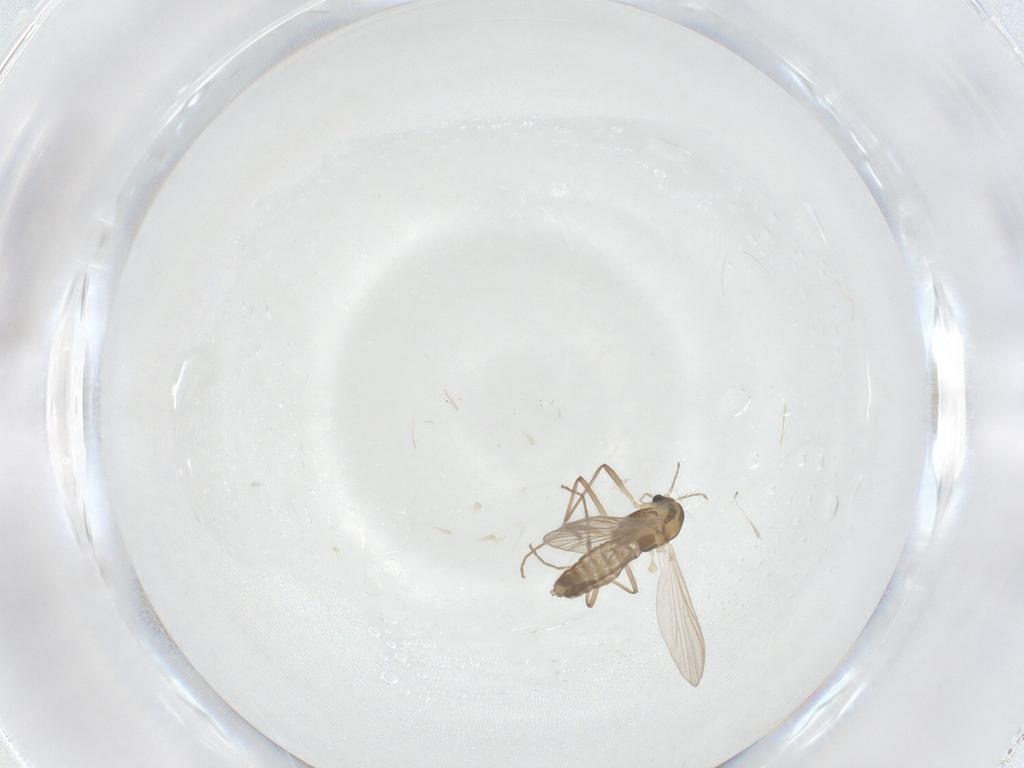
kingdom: Animalia
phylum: Arthropoda
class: Insecta
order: Diptera
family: Chironomidae
